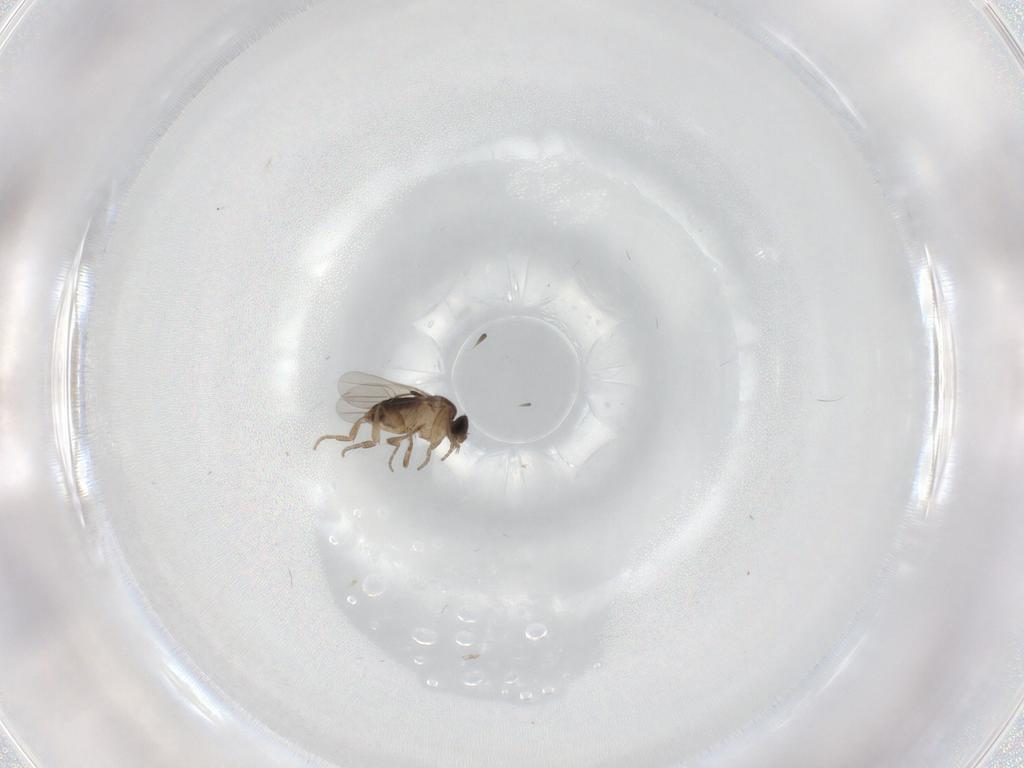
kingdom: Animalia
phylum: Arthropoda
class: Insecta
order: Diptera
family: Phoridae
